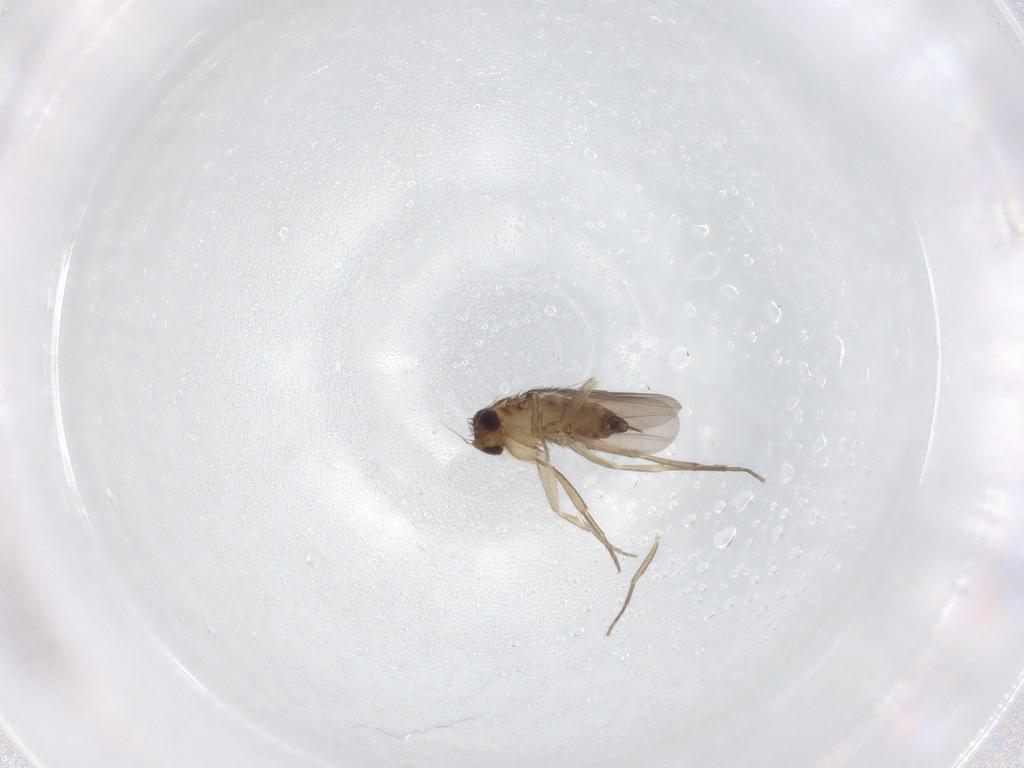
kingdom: Animalia
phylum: Arthropoda
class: Insecta
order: Diptera
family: Phoridae
